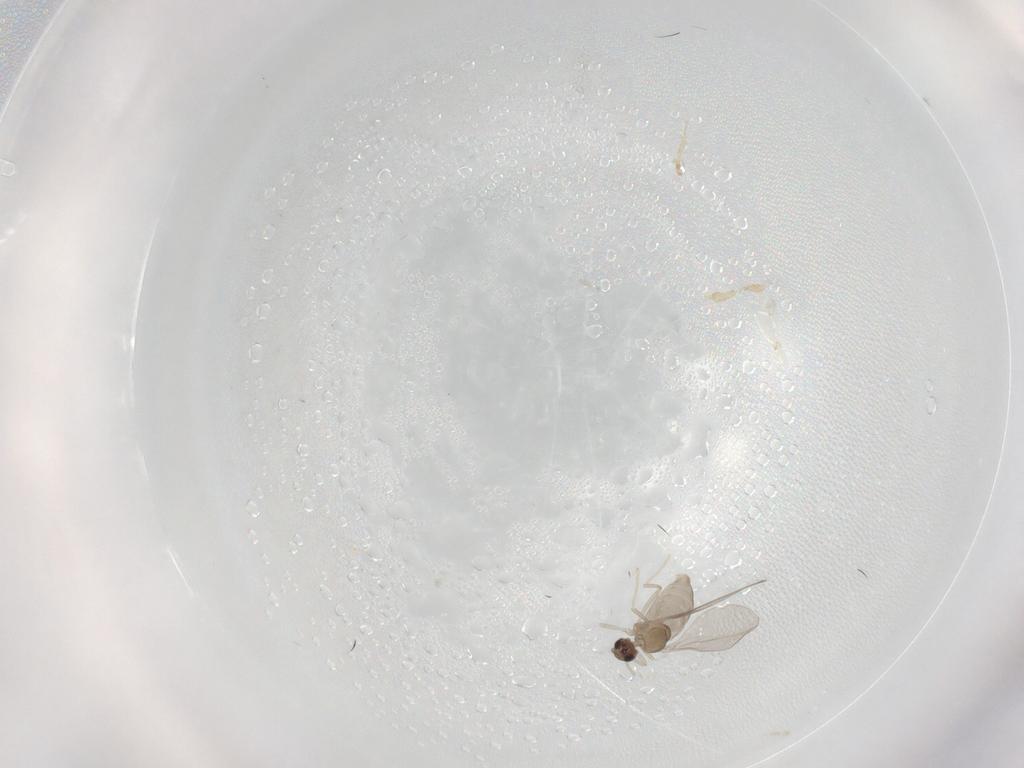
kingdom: Animalia
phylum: Arthropoda
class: Insecta
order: Diptera
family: Cecidomyiidae
